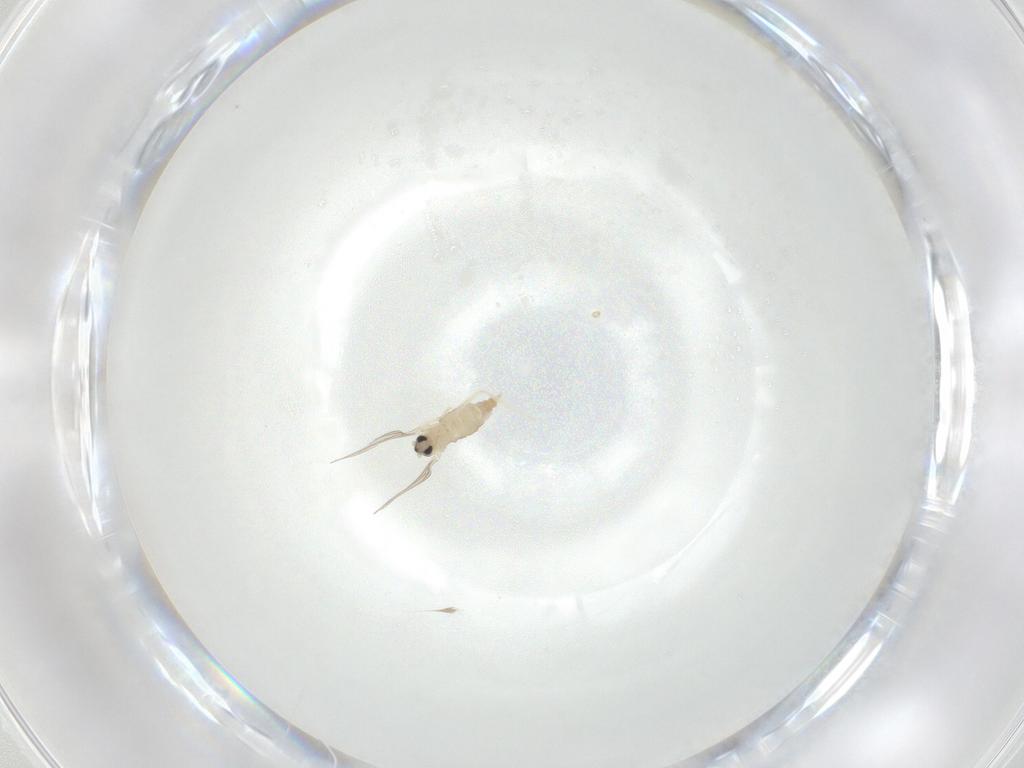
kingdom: Animalia
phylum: Arthropoda
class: Insecta
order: Diptera
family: Cecidomyiidae
